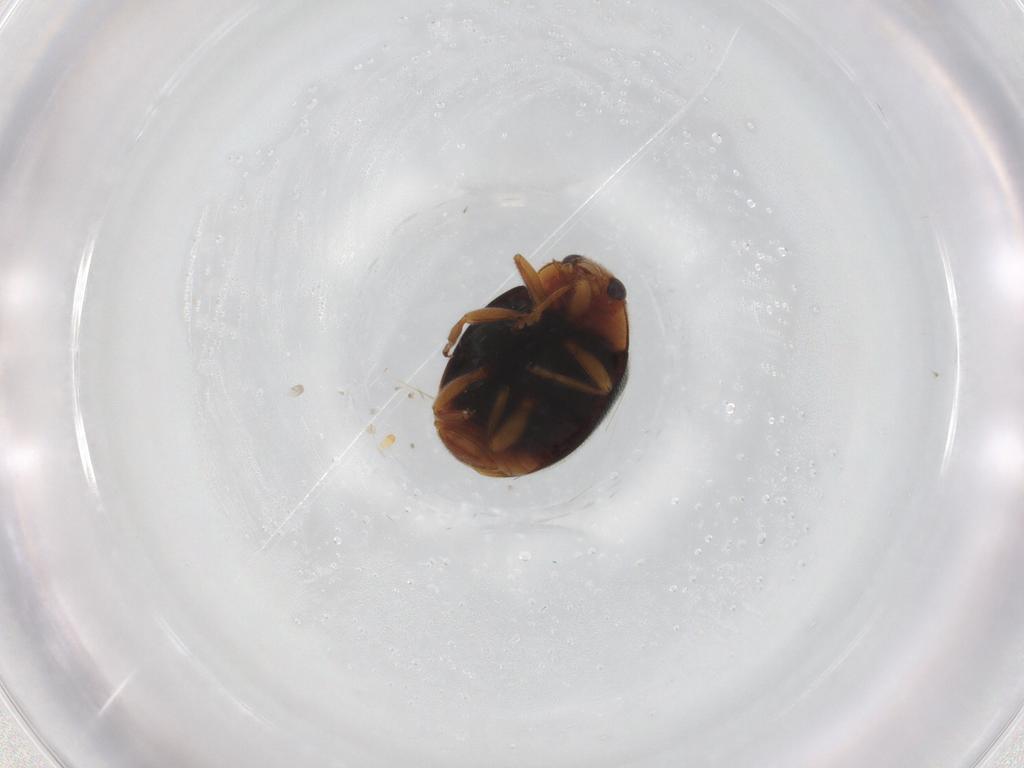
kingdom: Animalia
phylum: Arthropoda
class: Insecta
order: Coleoptera
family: Coccinellidae
